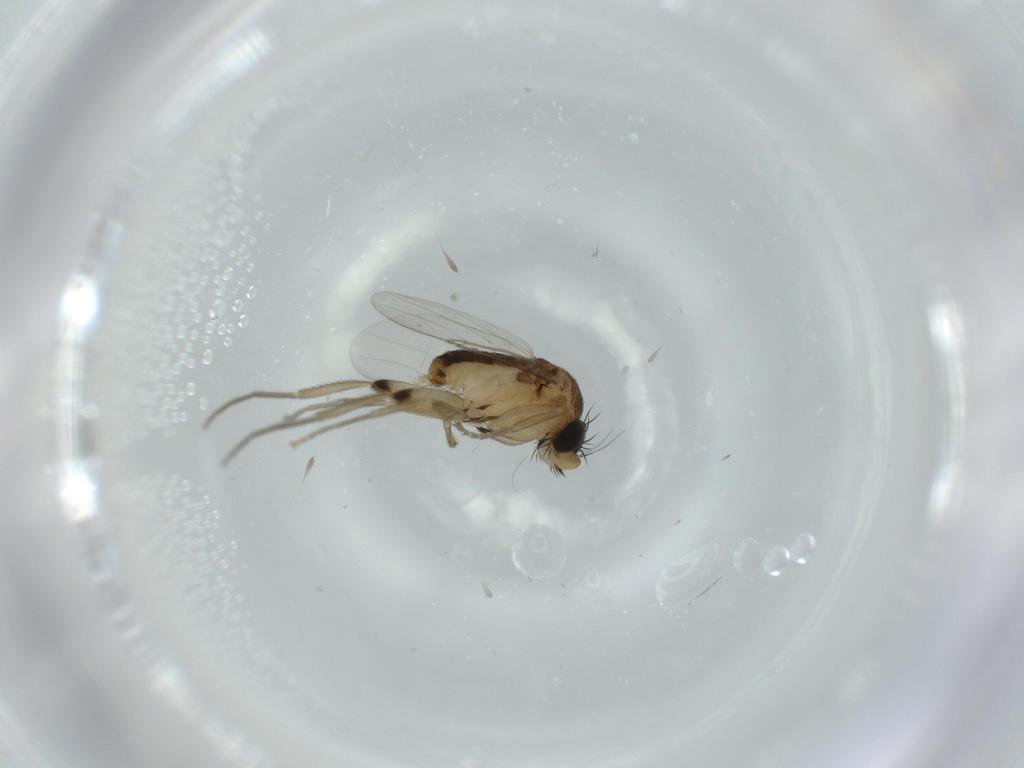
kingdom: Animalia
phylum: Arthropoda
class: Insecta
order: Diptera
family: Phoridae
